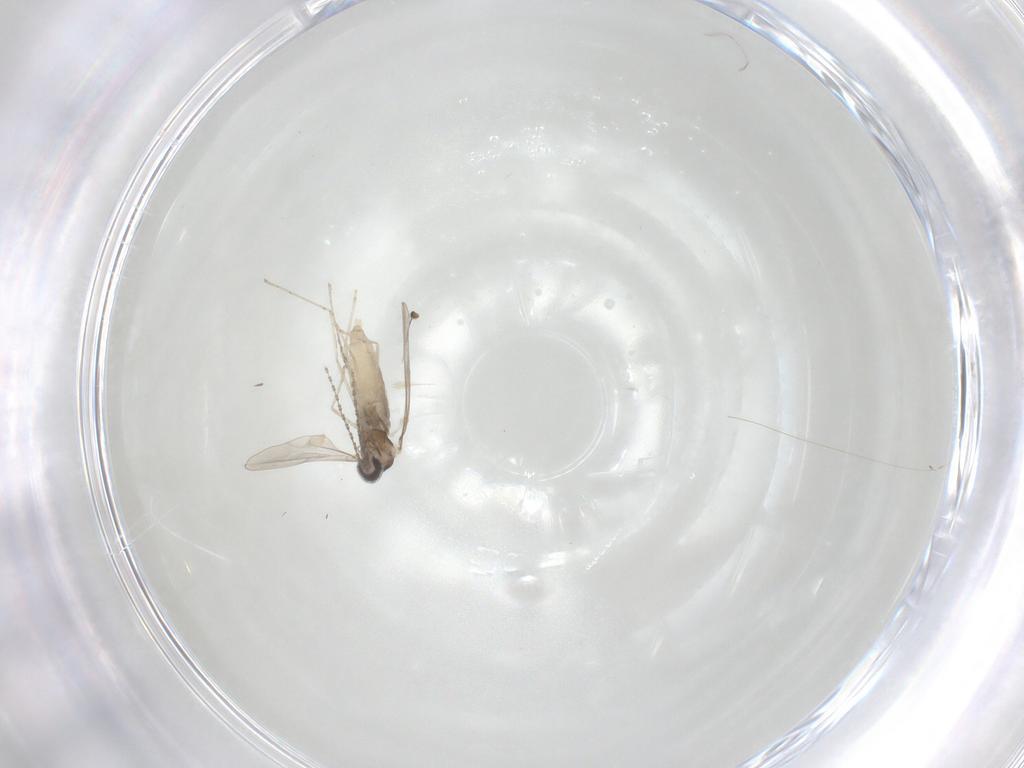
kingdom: Animalia
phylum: Arthropoda
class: Insecta
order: Diptera
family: Cecidomyiidae
